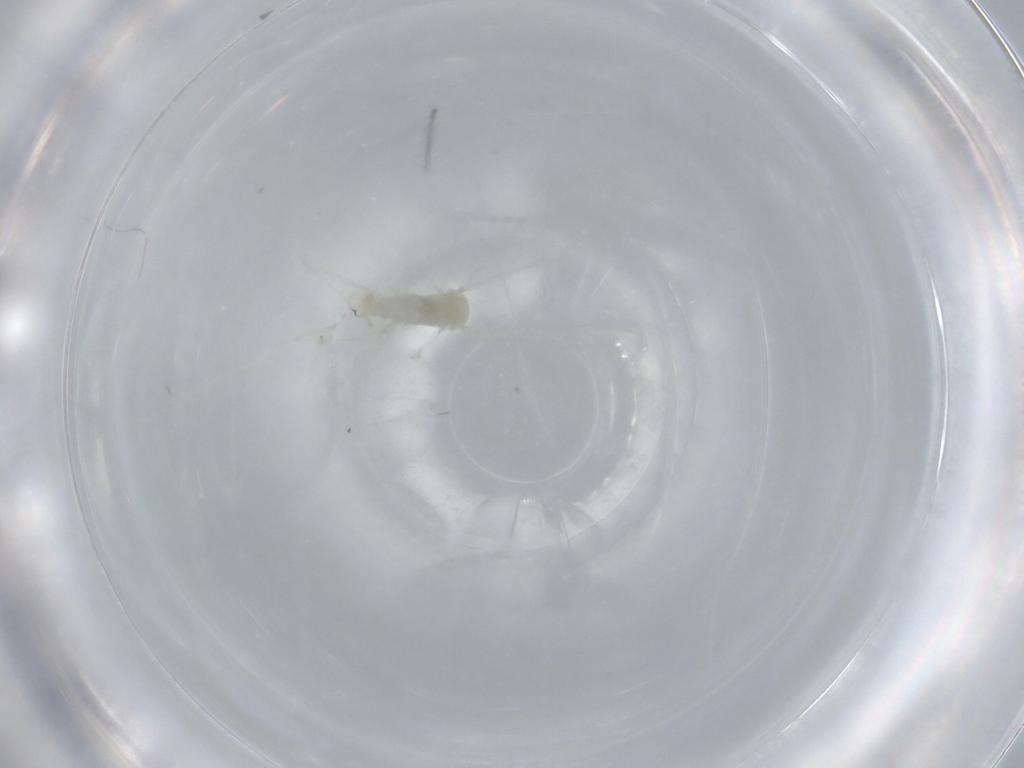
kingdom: Animalia
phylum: Arthropoda
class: Insecta
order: Diptera
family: Cecidomyiidae
